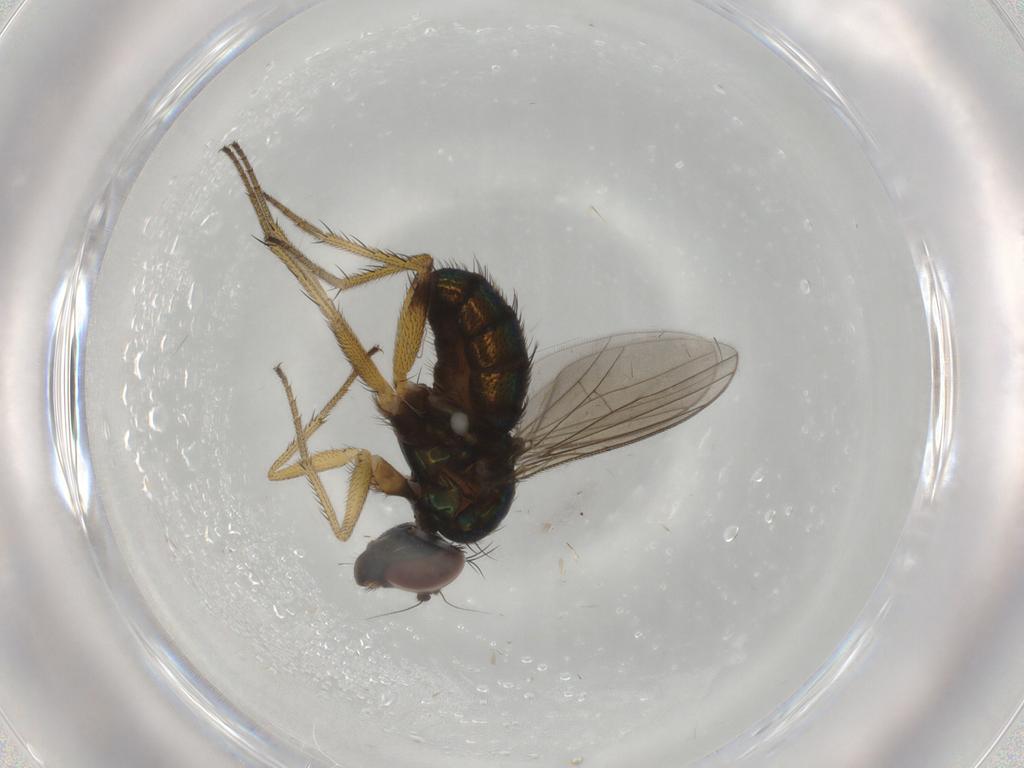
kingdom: Animalia
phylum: Arthropoda
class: Insecta
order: Diptera
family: Dolichopodidae
